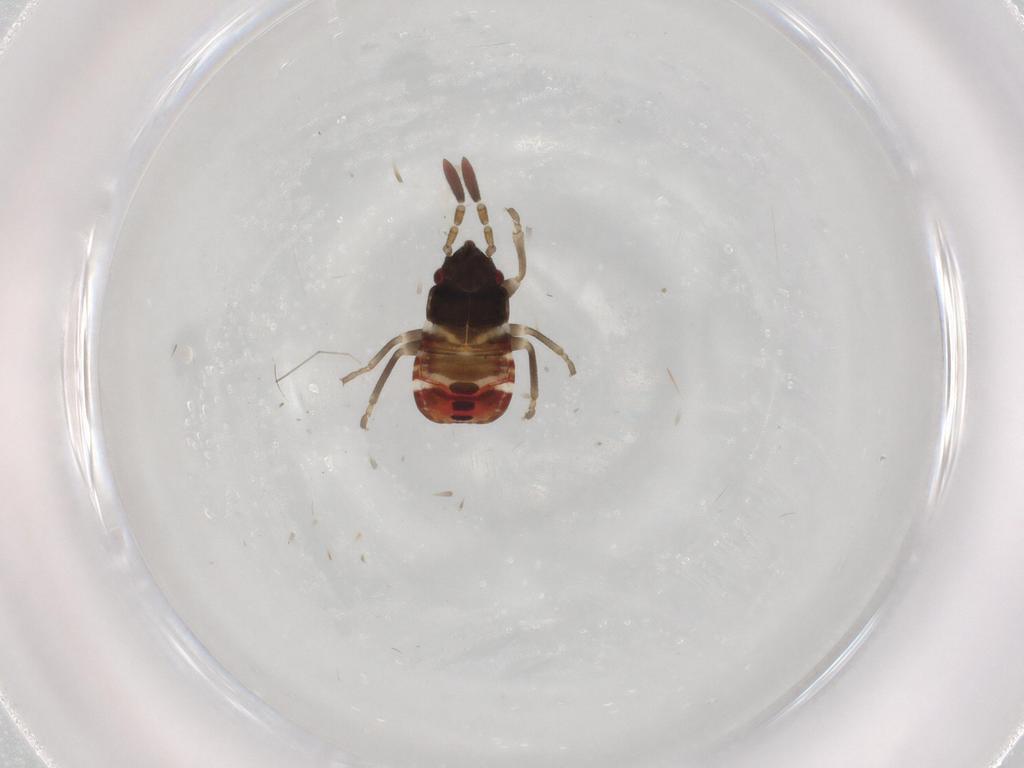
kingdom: Animalia
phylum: Arthropoda
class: Insecta
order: Hemiptera
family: Rhyparochromidae
